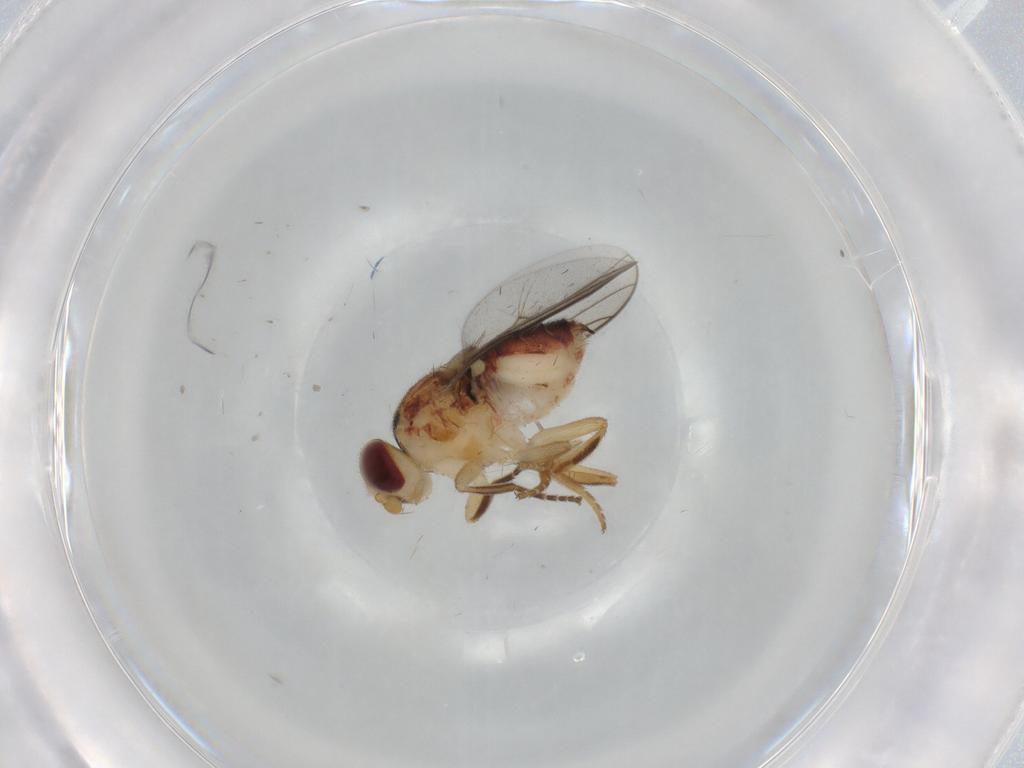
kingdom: Animalia
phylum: Arthropoda
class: Insecta
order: Diptera
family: Chloropidae
